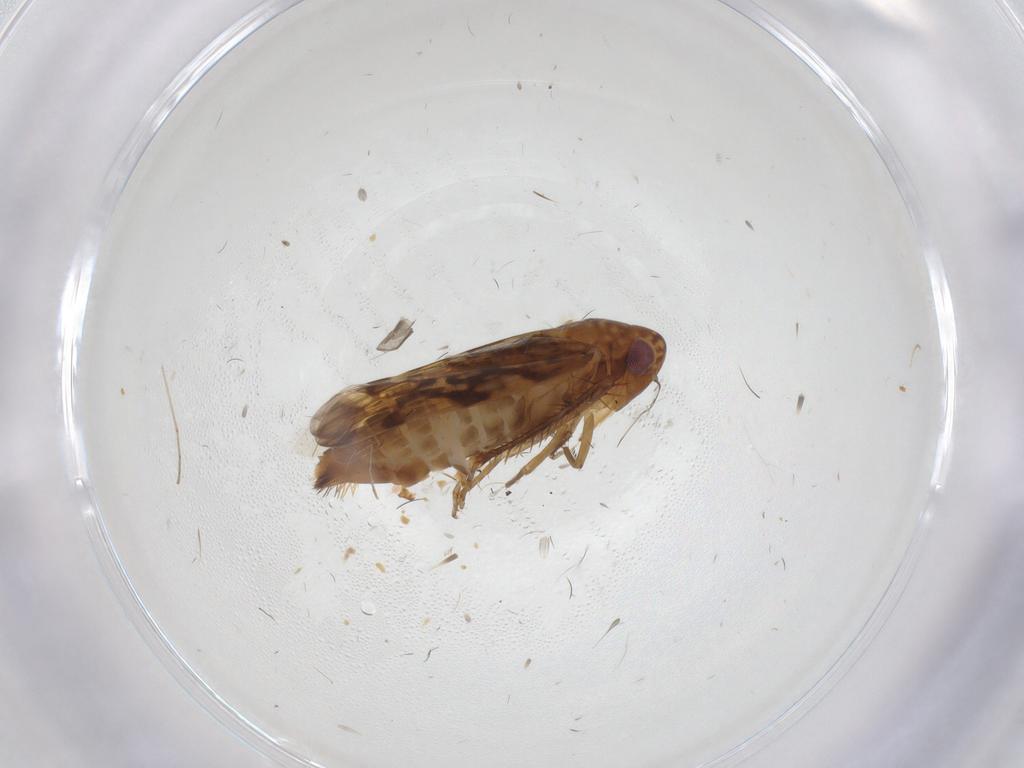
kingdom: Animalia
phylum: Arthropoda
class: Insecta
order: Hemiptera
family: Cicadellidae
